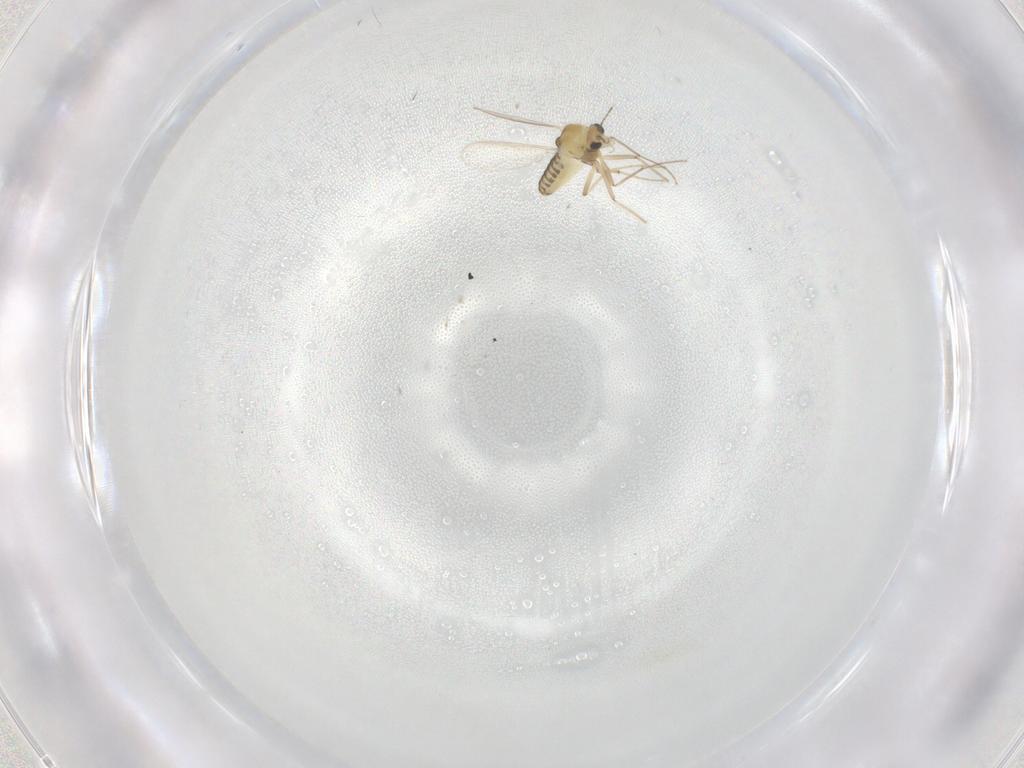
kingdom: Animalia
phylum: Arthropoda
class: Insecta
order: Diptera
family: Chironomidae
